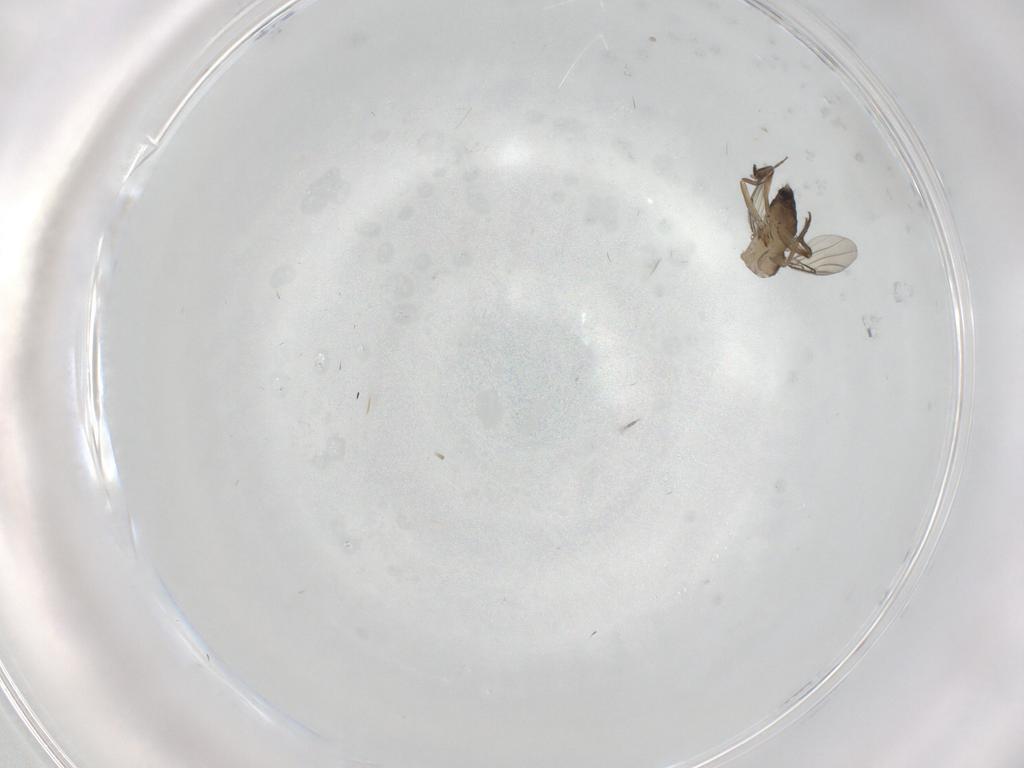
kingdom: Animalia
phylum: Arthropoda
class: Insecta
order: Diptera
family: Phoridae
